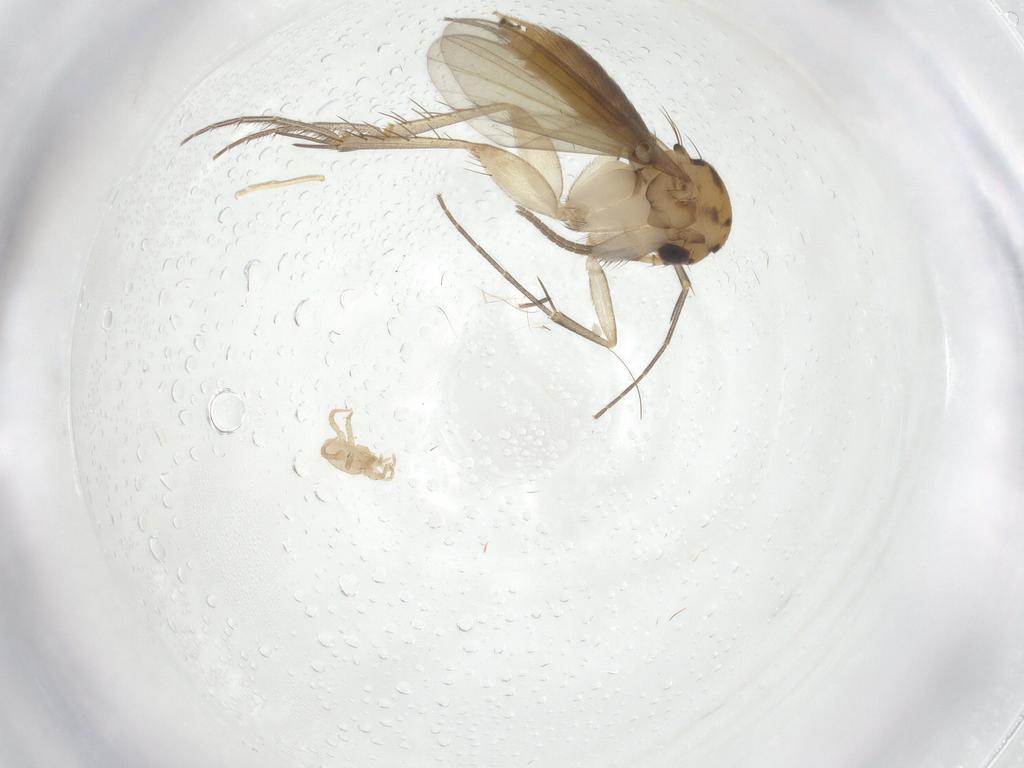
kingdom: Animalia
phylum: Arthropoda
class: Insecta
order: Diptera
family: Mycetophilidae
